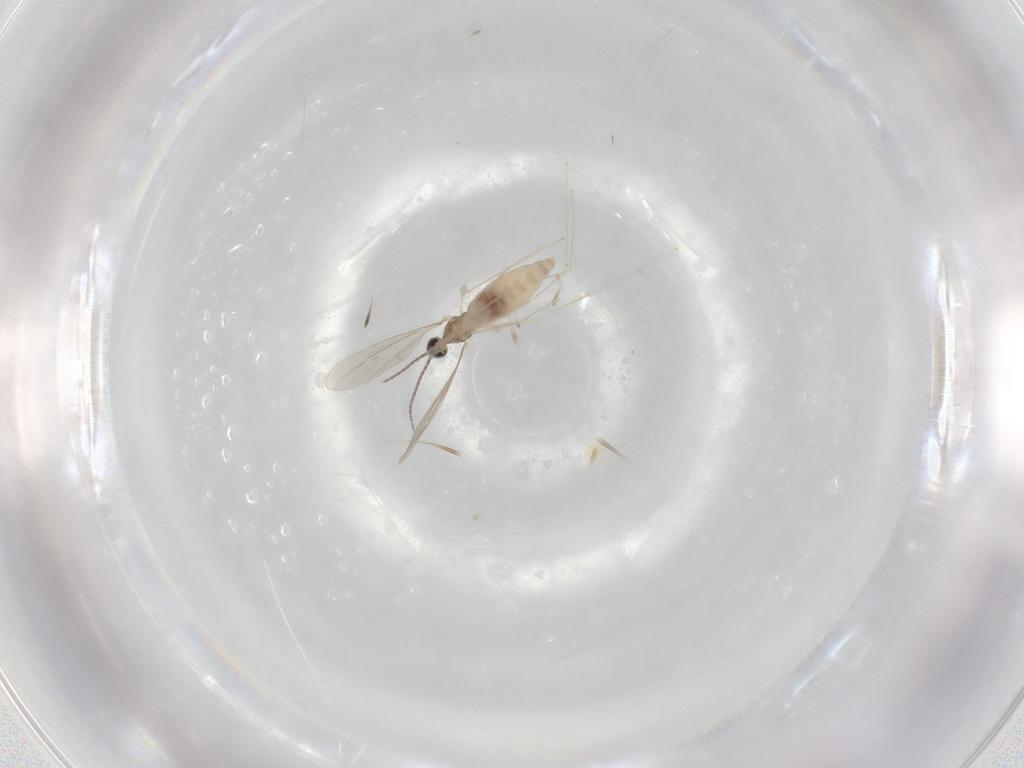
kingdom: Animalia
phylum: Arthropoda
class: Insecta
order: Diptera
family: Cecidomyiidae
